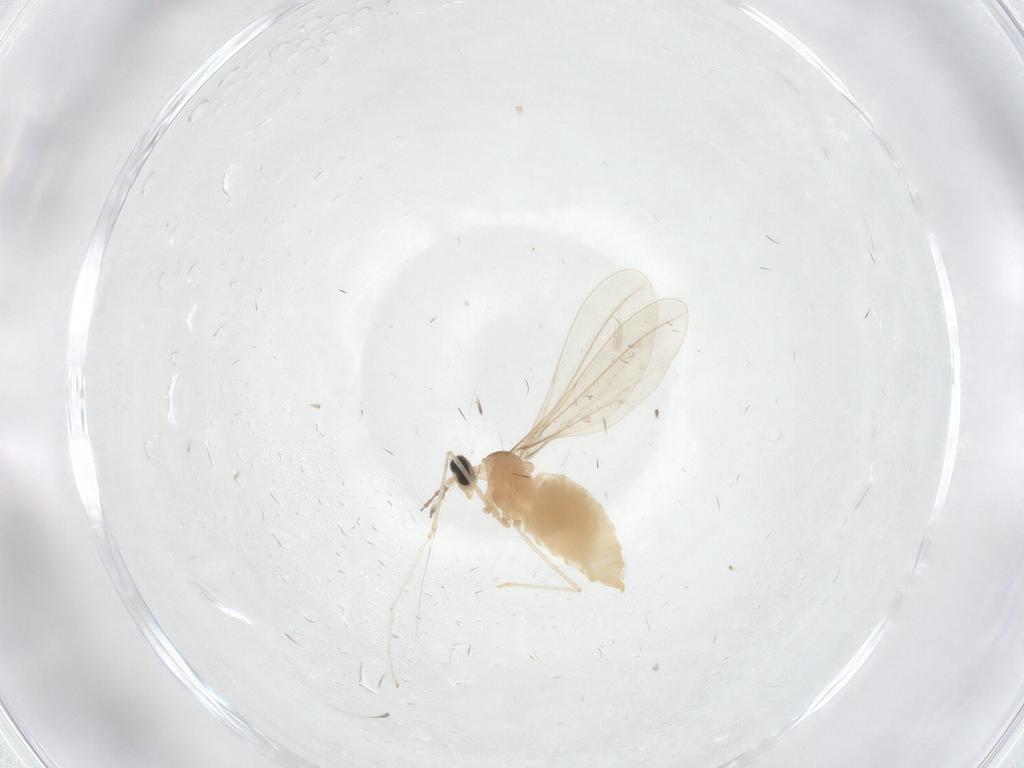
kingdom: Animalia
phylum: Arthropoda
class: Insecta
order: Diptera
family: Cecidomyiidae
